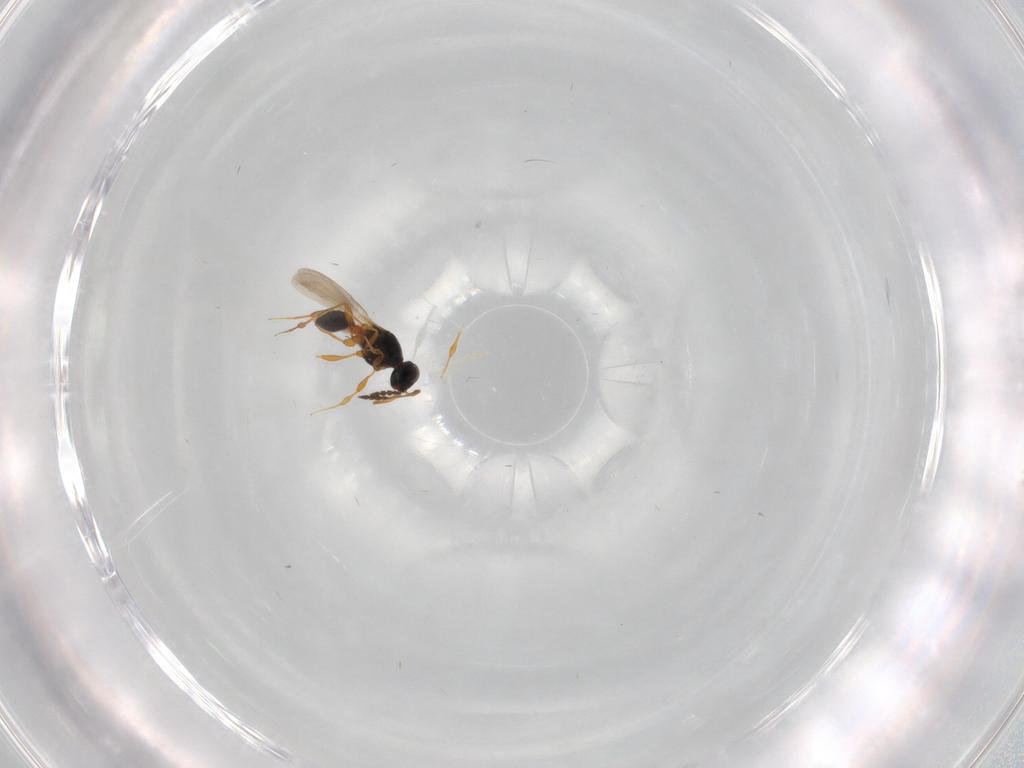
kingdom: Animalia
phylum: Arthropoda
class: Insecta
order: Hymenoptera
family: Platygastridae
